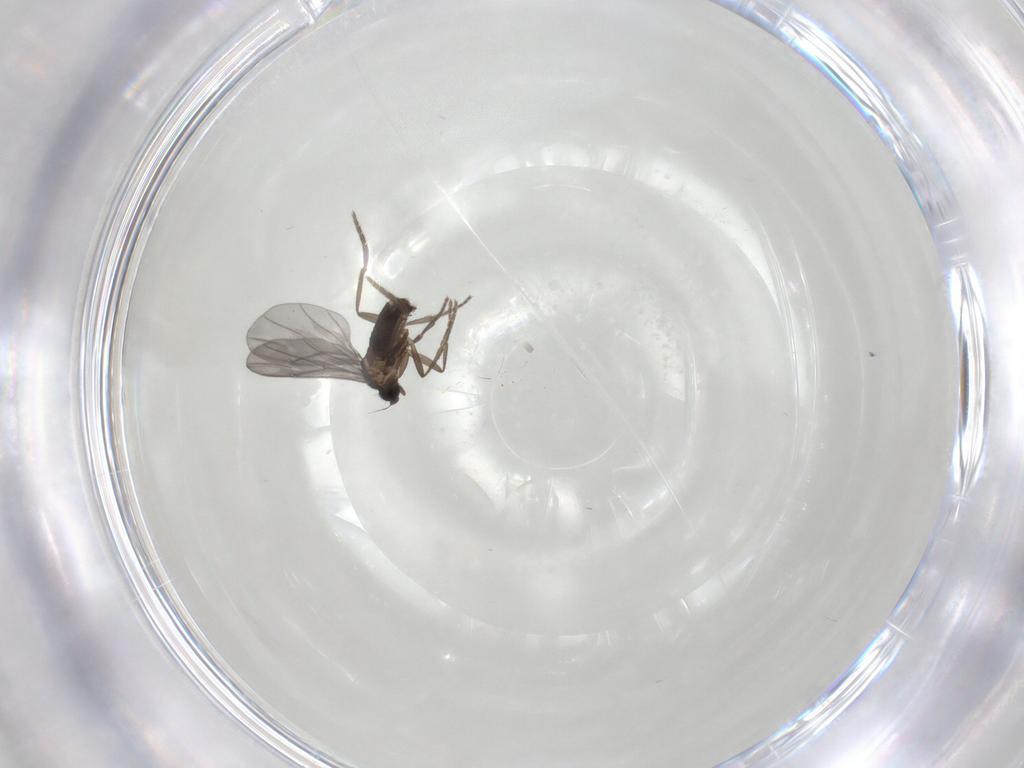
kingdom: Animalia
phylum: Arthropoda
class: Insecta
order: Diptera
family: Phoridae
